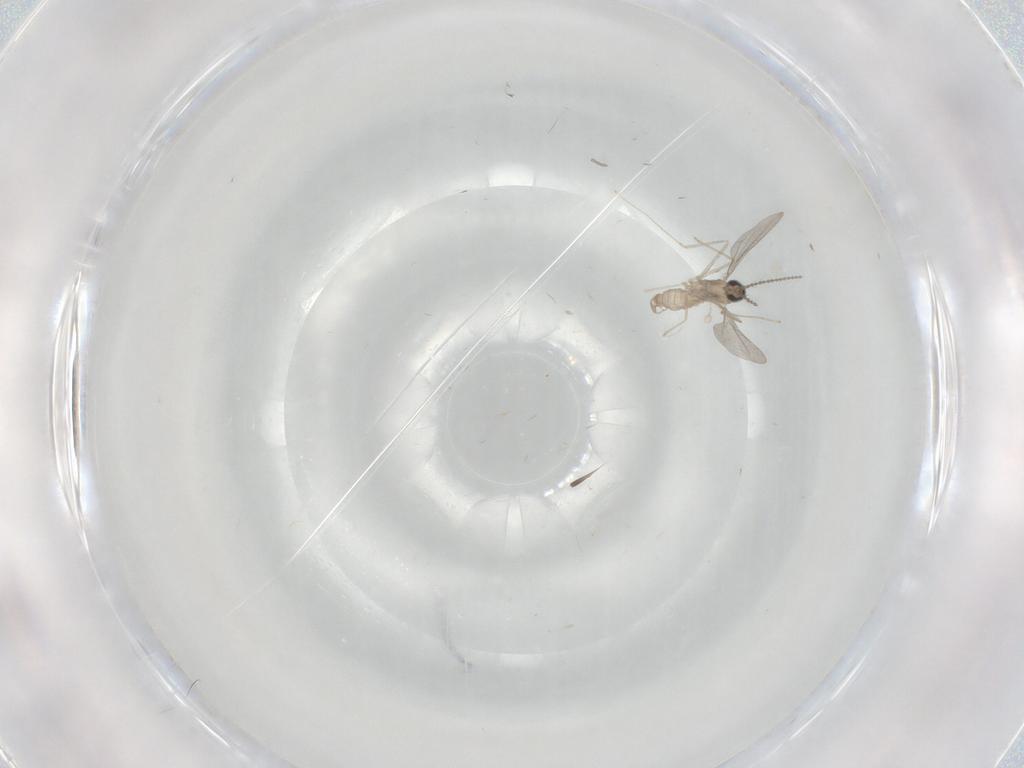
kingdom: Animalia
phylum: Arthropoda
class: Insecta
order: Diptera
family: Cecidomyiidae
